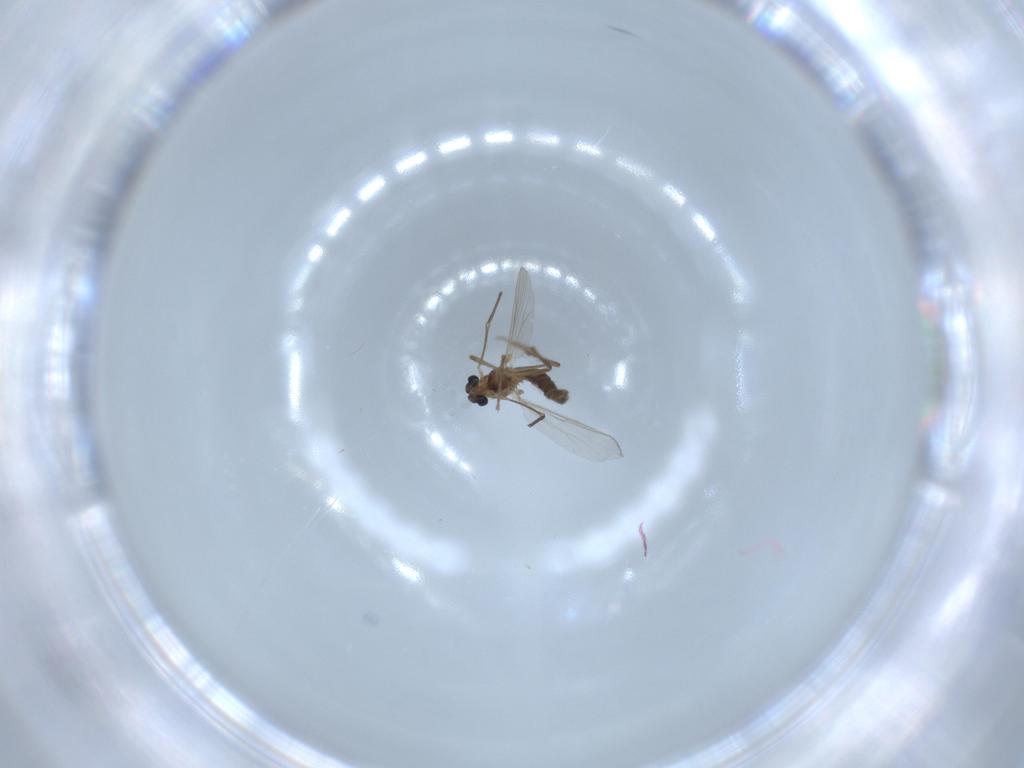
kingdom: Animalia
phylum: Arthropoda
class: Insecta
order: Diptera
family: Chironomidae
